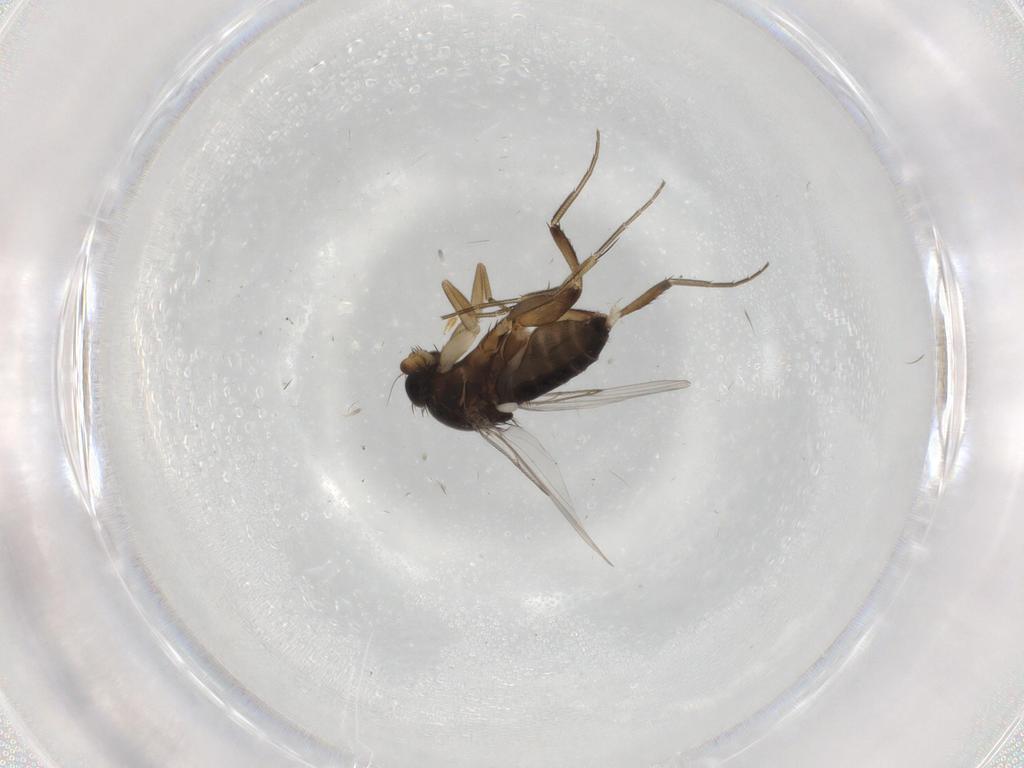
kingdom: Animalia
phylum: Arthropoda
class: Insecta
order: Diptera
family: Phoridae
